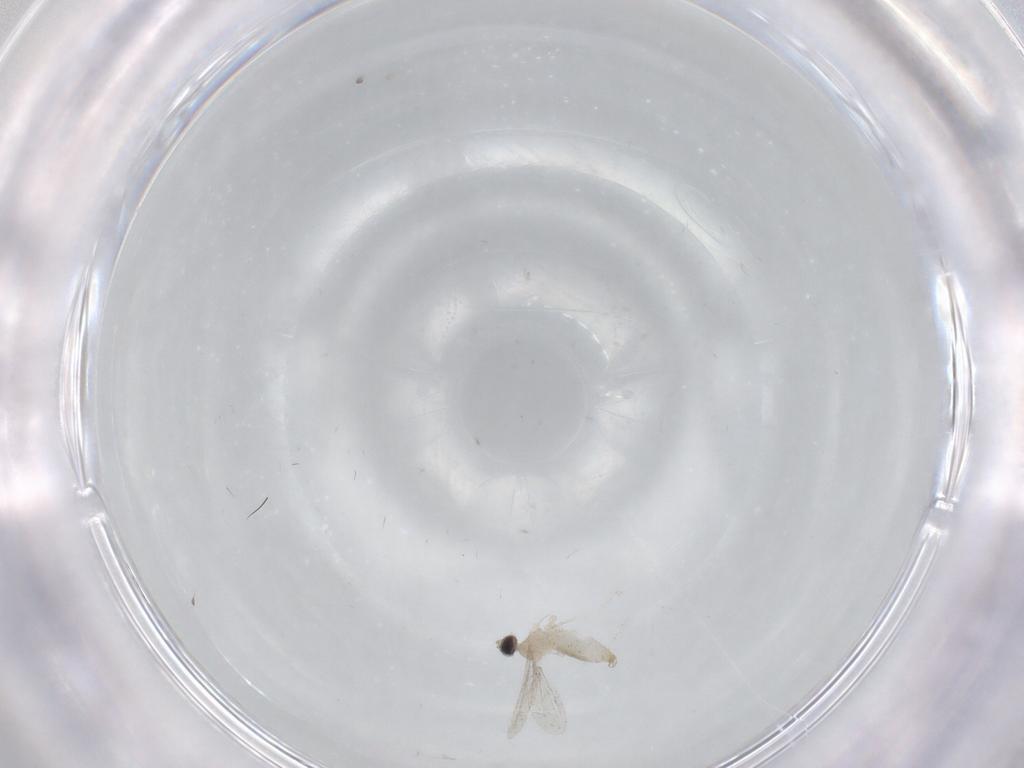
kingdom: Animalia
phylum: Arthropoda
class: Insecta
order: Diptera
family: Cecidomyiidae
